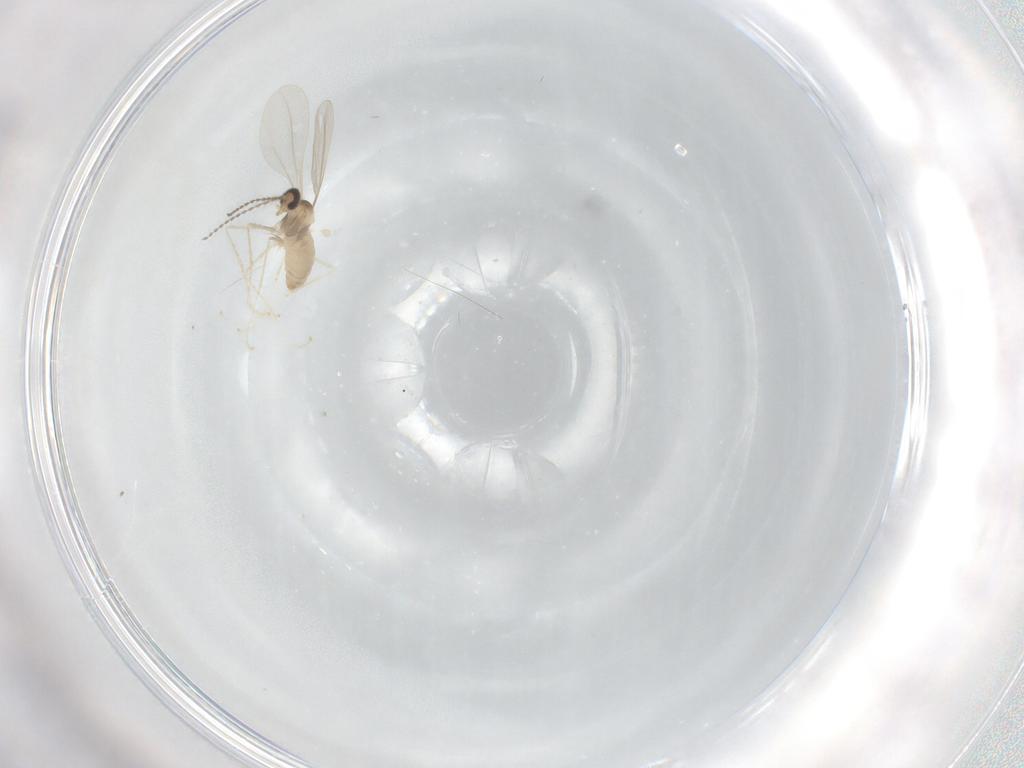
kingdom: Animalia
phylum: Arthropoda
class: Insecta
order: Diptera
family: Cecidomyiidae
